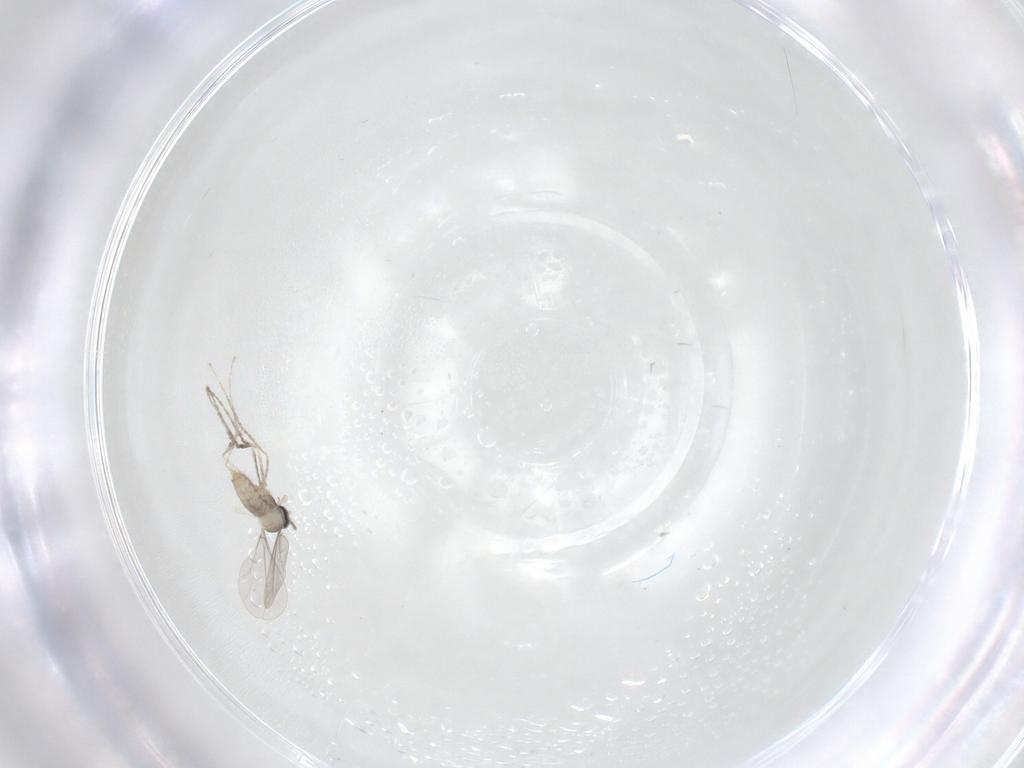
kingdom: Animalia
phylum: Arthropoda
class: Insecta
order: Diptera
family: Cecidomyiidae
